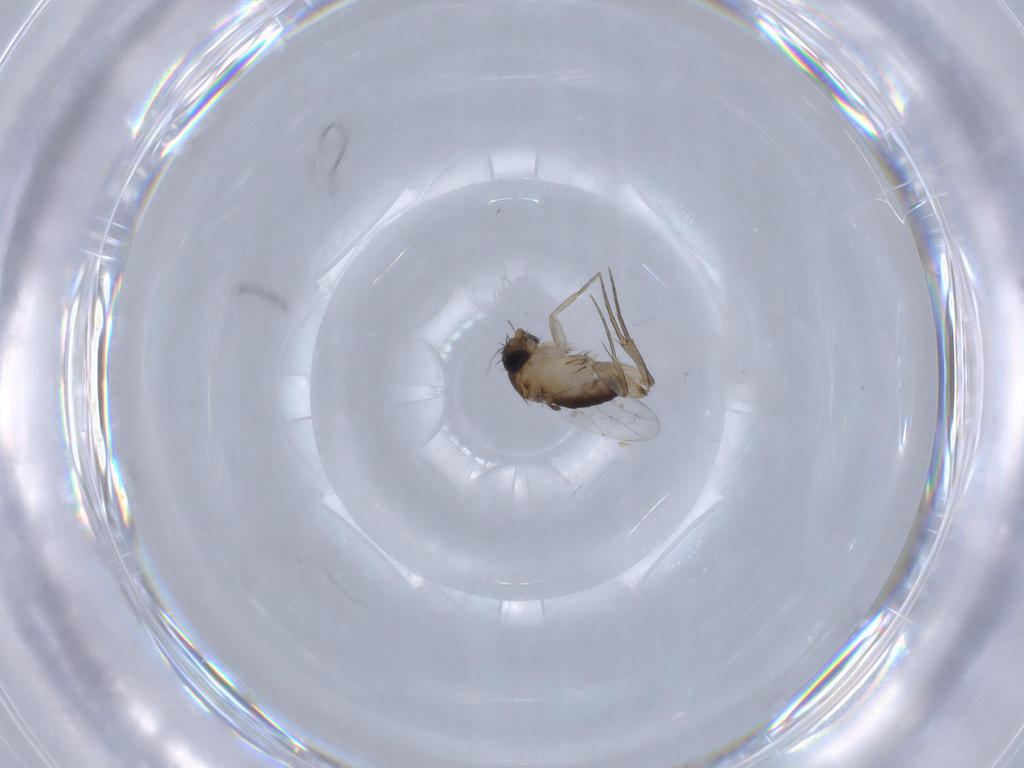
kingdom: Animalia
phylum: Arthropoda
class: Insecta
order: Diptera
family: Phoridae
